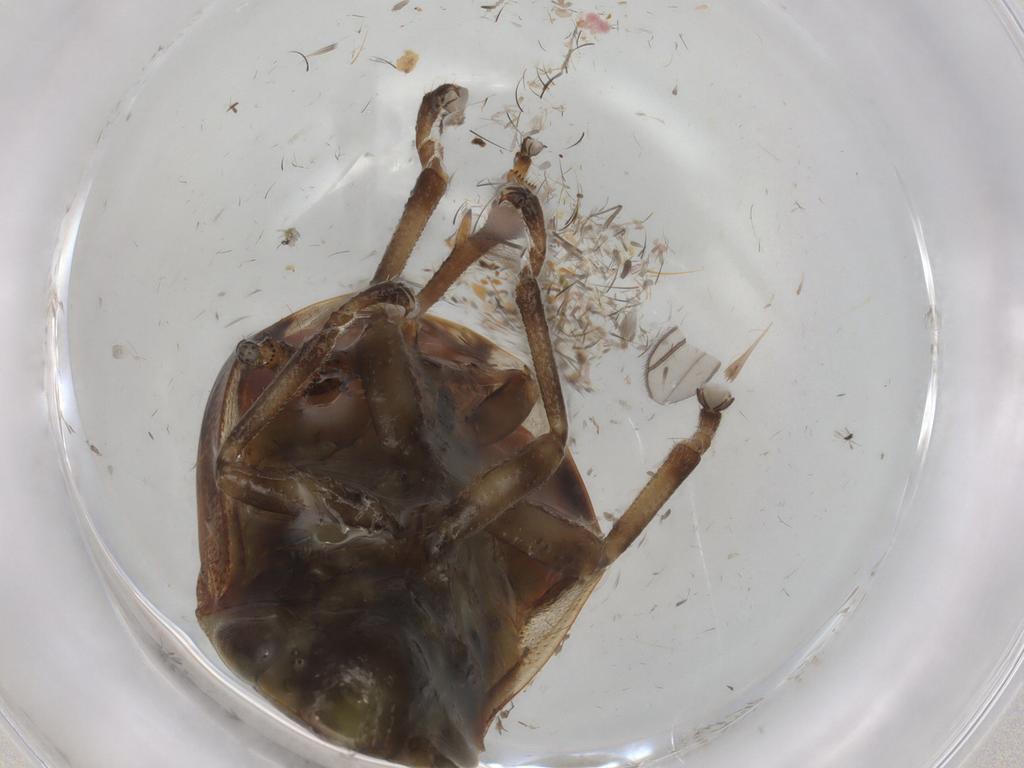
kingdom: Animalia
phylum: Arthropoda
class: Insecta
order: Hemiptera
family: Aphrophoridae
